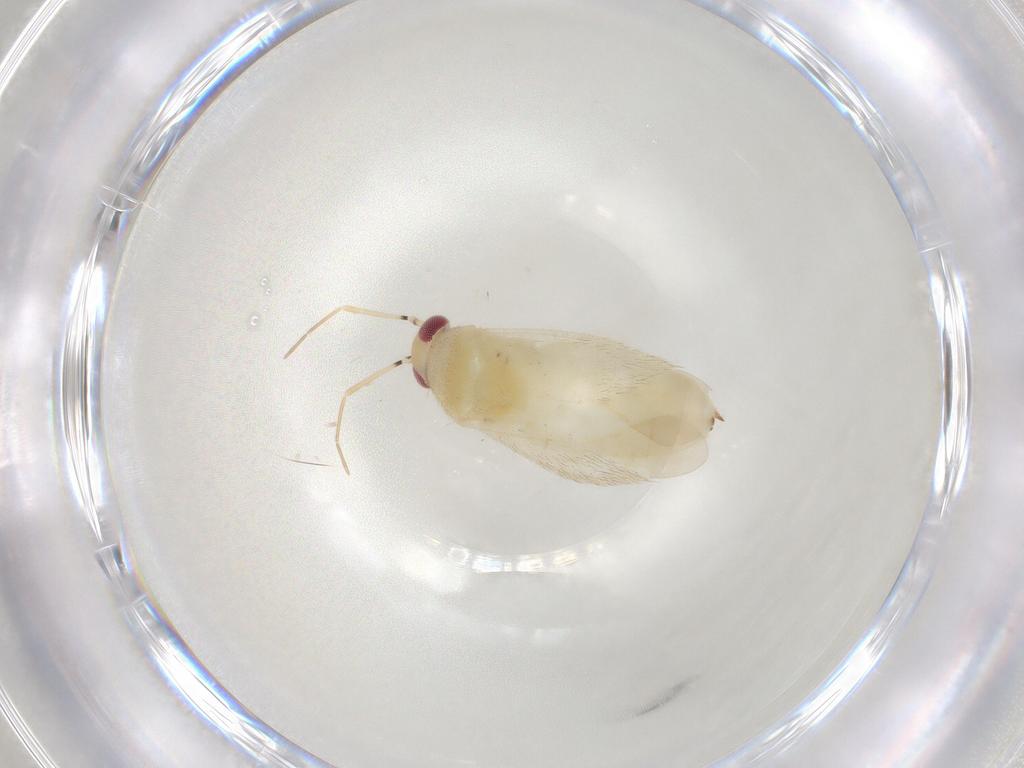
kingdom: Animalia
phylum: Arthropoda
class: Insecta
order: Hemiptera
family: Miridae
